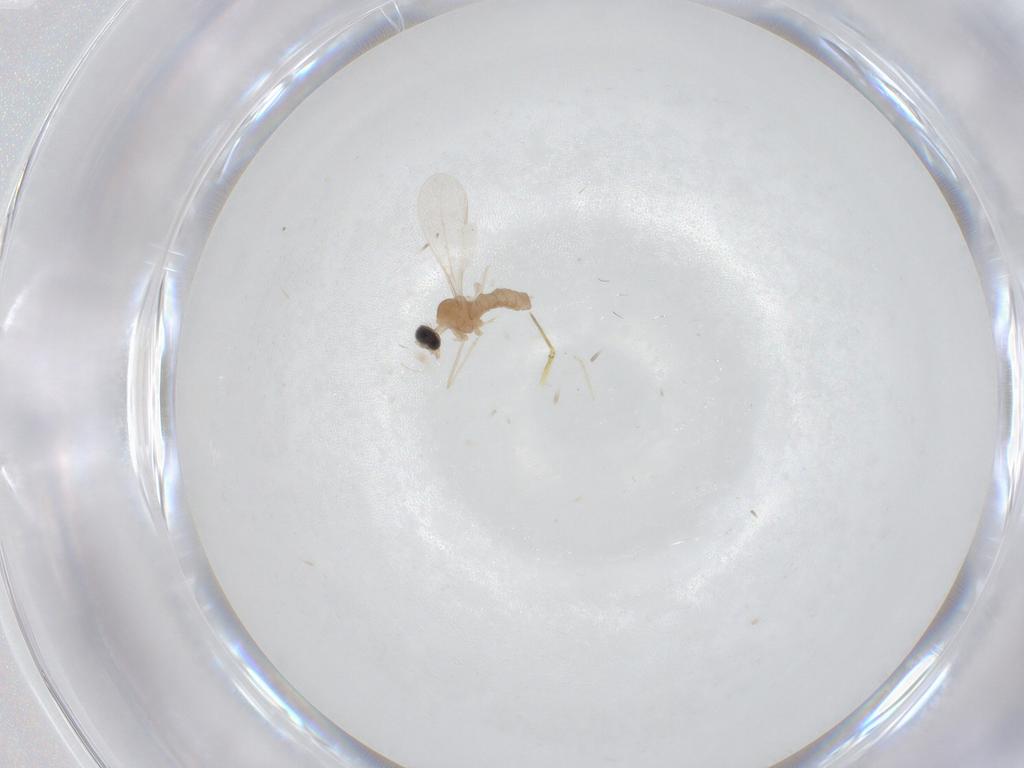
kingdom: Animalia
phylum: Arthropoda
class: Insecta
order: Diptera
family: Cecidomyiidae
